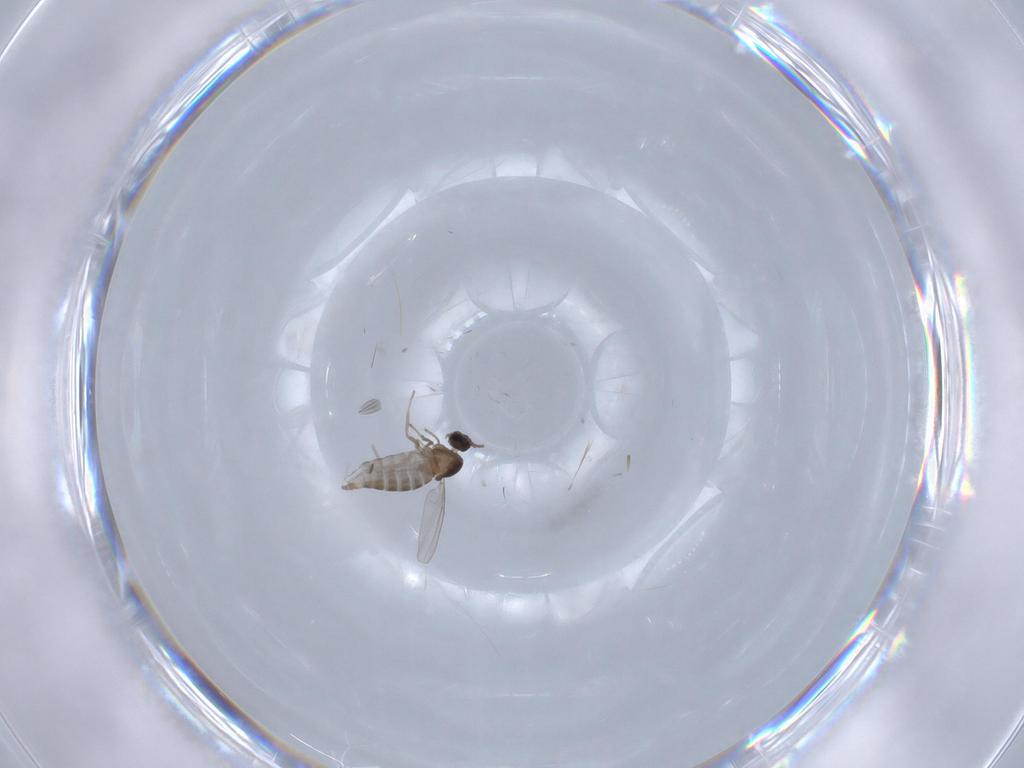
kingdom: Animalia
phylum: Arthropoda
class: Insecta
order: Diptera
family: Cecidomyiidae
